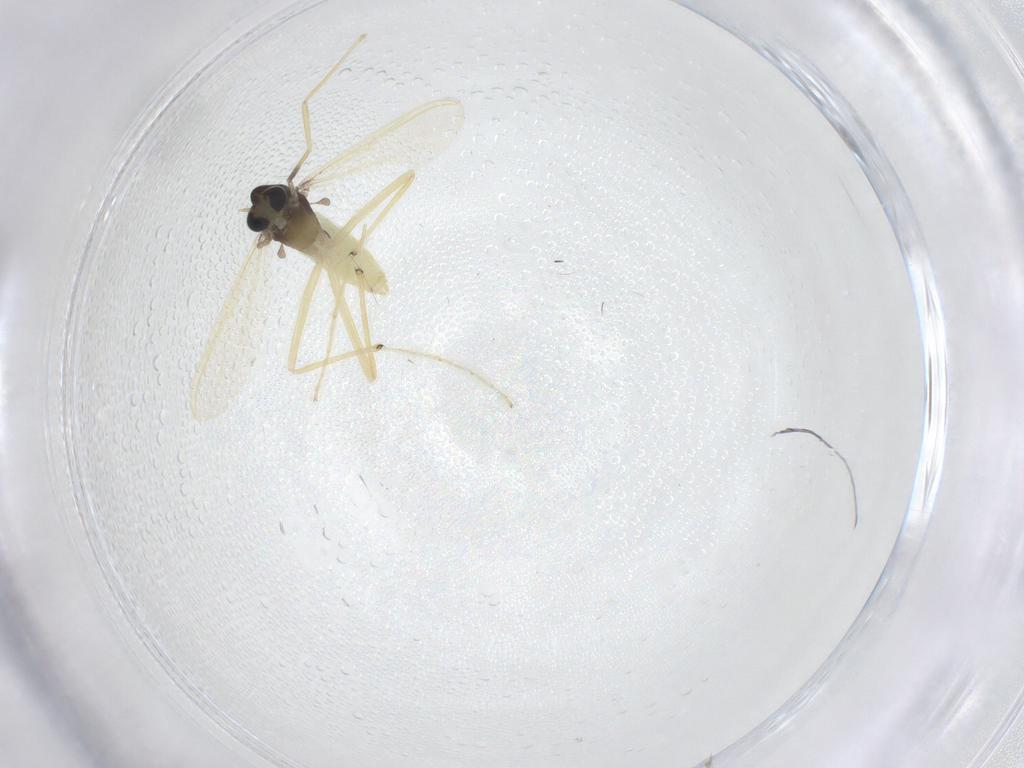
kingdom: Animalia
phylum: Arthropoda
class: Insecta
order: Diptera
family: Chironomidae
